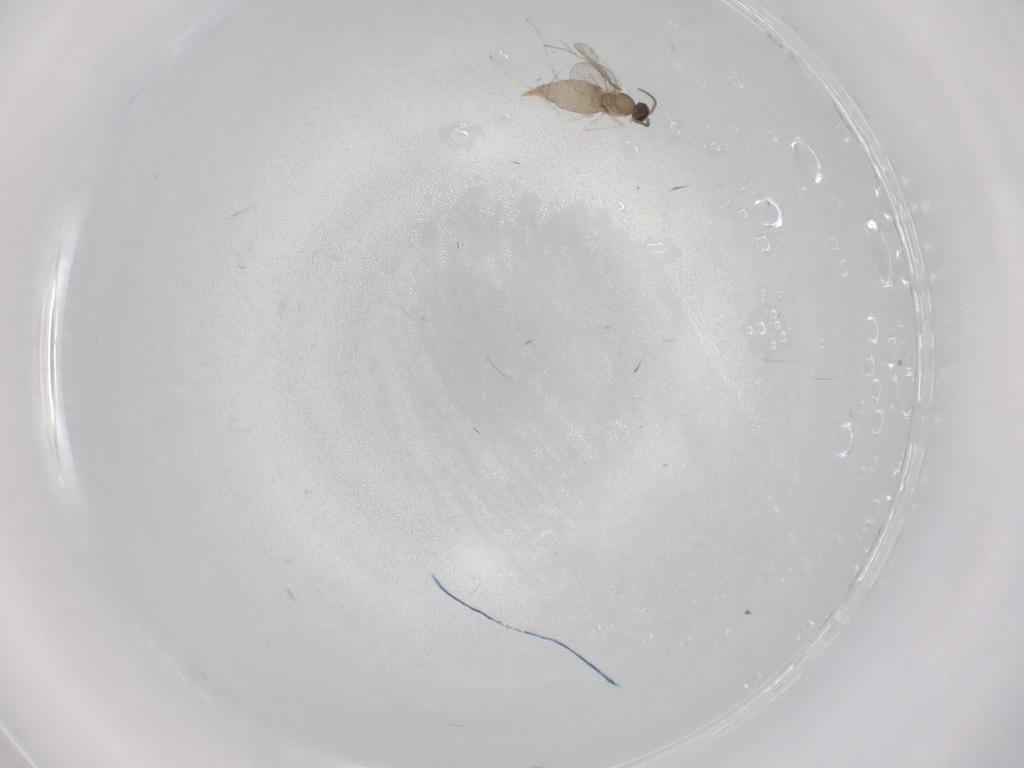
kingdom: Animalia
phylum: Arthropoda
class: Insecta
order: Diptera
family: Cecidomyiidae
